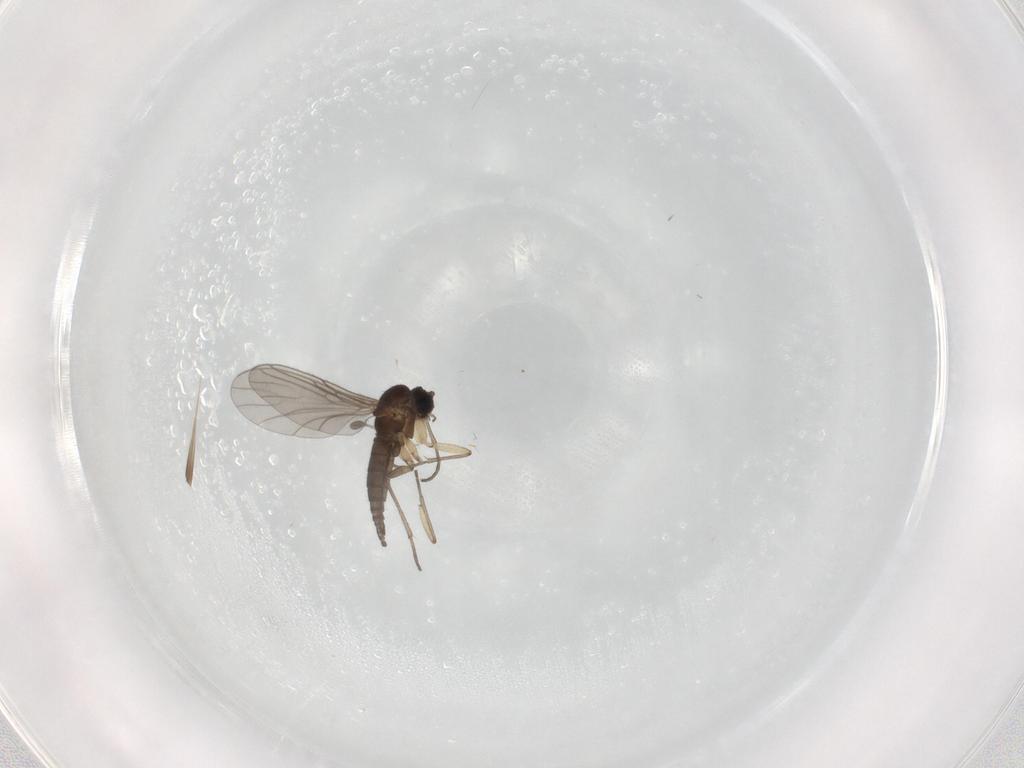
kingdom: Animalia
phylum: Arthropoda
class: Insecta
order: Diptera
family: Sciaridae
